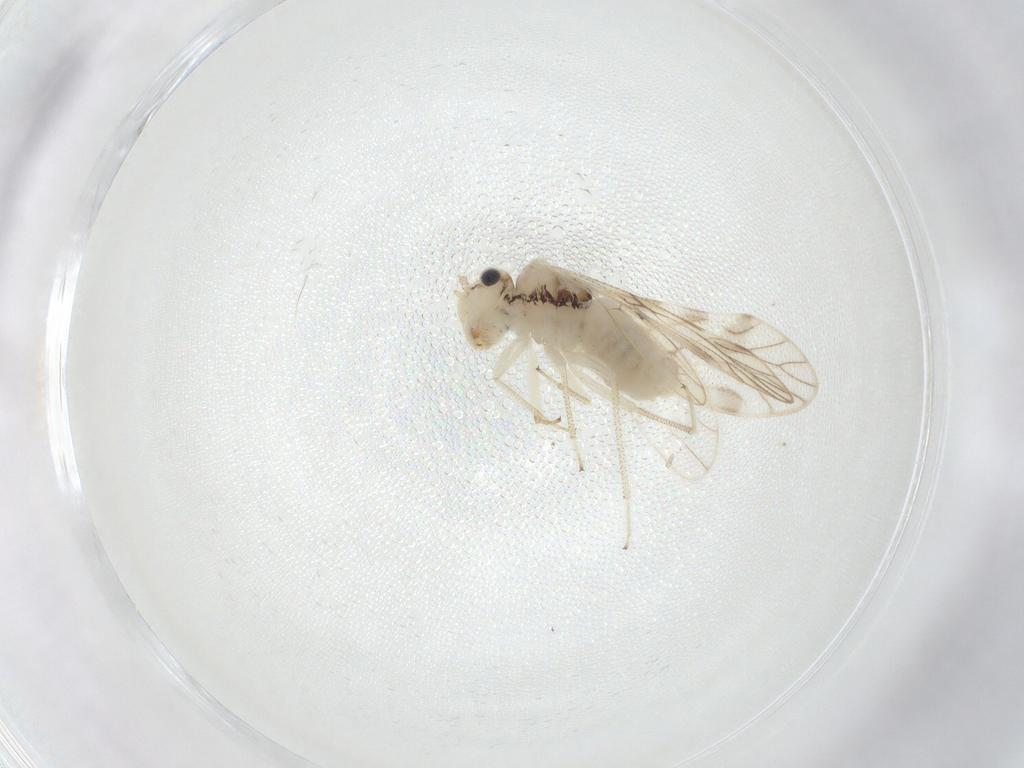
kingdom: Animalia
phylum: Arthropoda
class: Insecta
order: Psocodea
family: Caeciliusidae
